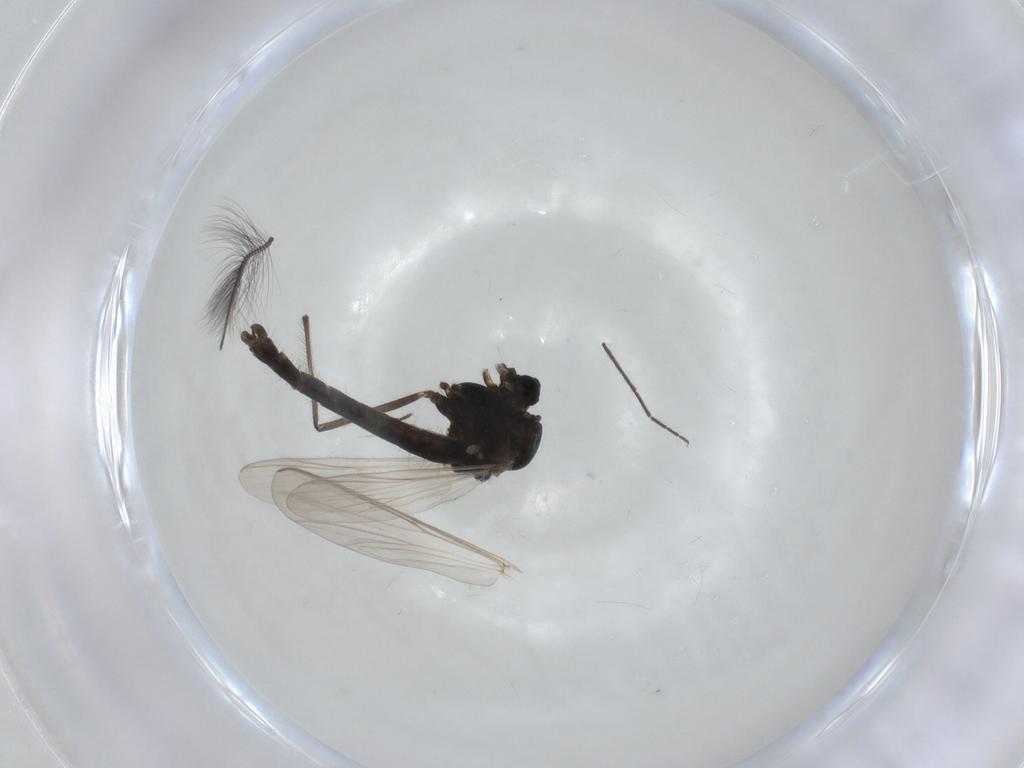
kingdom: Animalia
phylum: Arthropoda
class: Insecta
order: Diptera
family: Chironomidae
